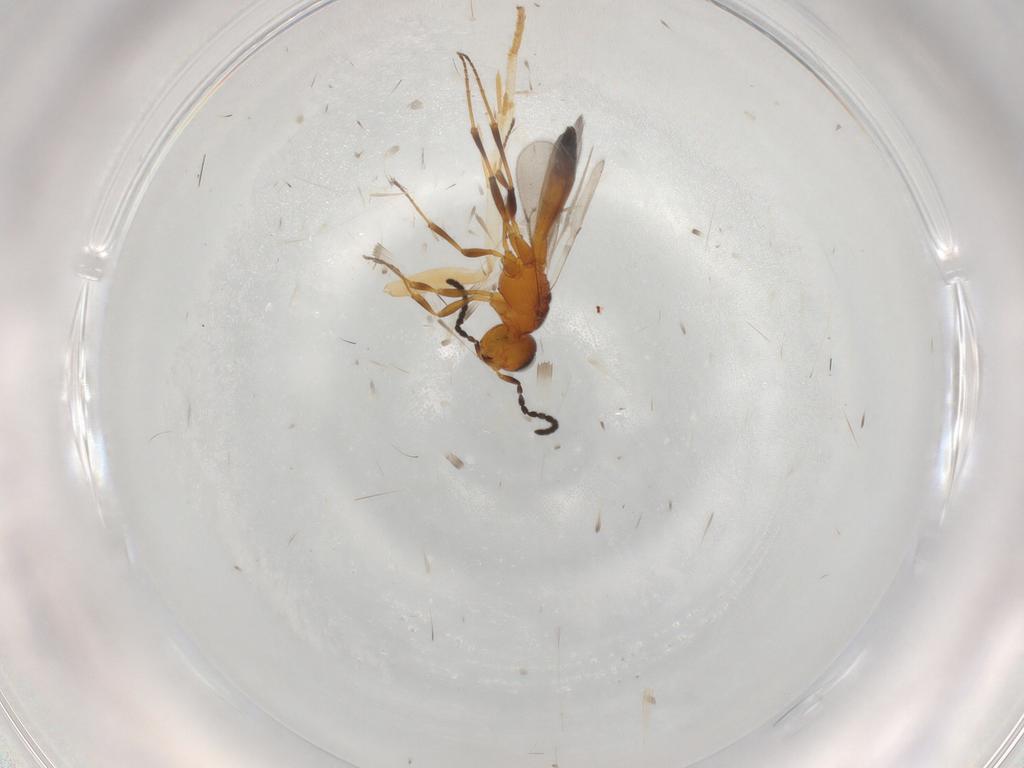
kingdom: Animalia
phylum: Arthropoda
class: Insecta
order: Hymenoptera
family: Scelionidae
